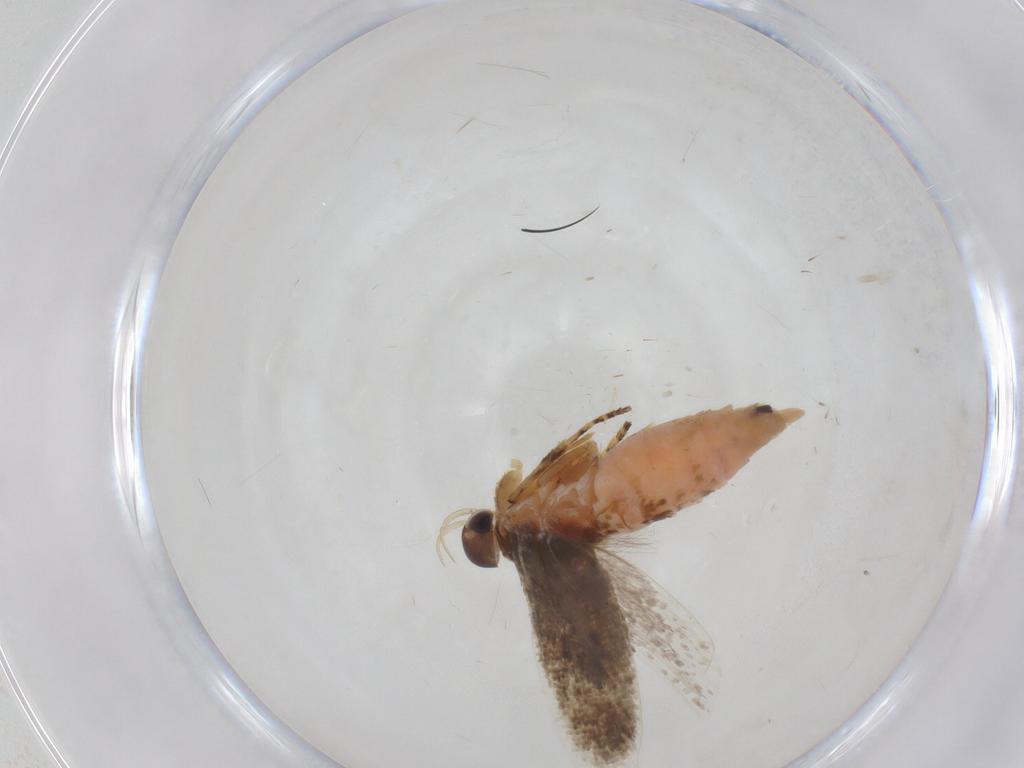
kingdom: Animalia
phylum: Arthropoda
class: Insecta
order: Lepidoptera
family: Gelechiidae
